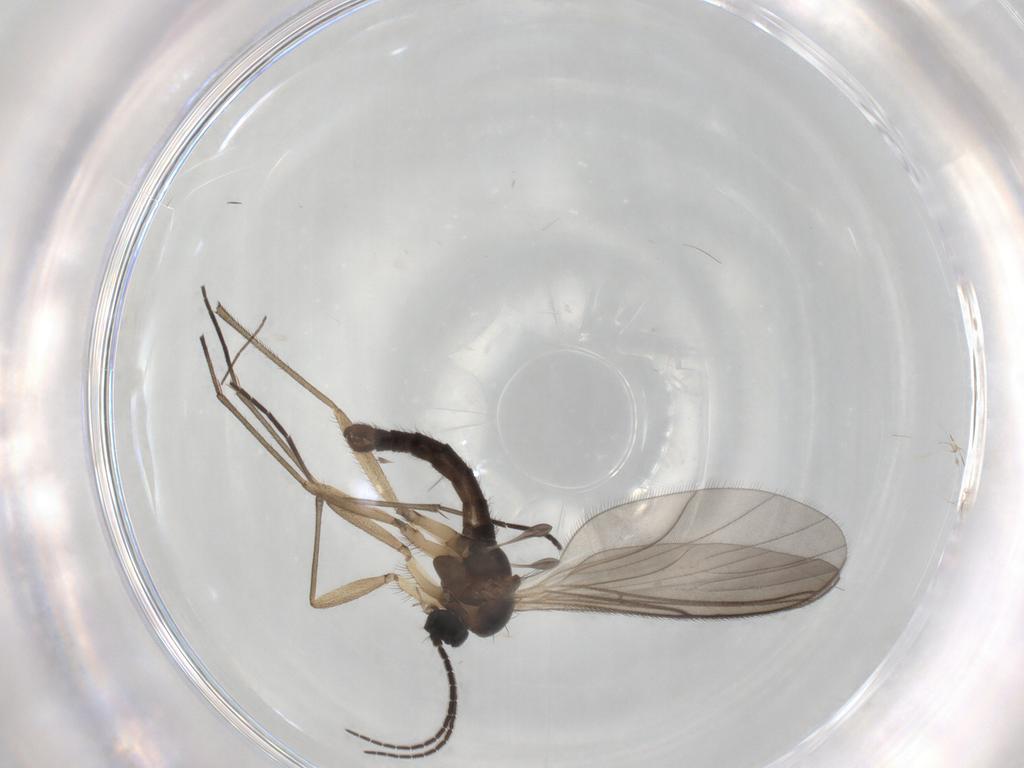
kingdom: Animalia
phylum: Arthropoda
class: Insecta
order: Diptera
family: Sciaridae
